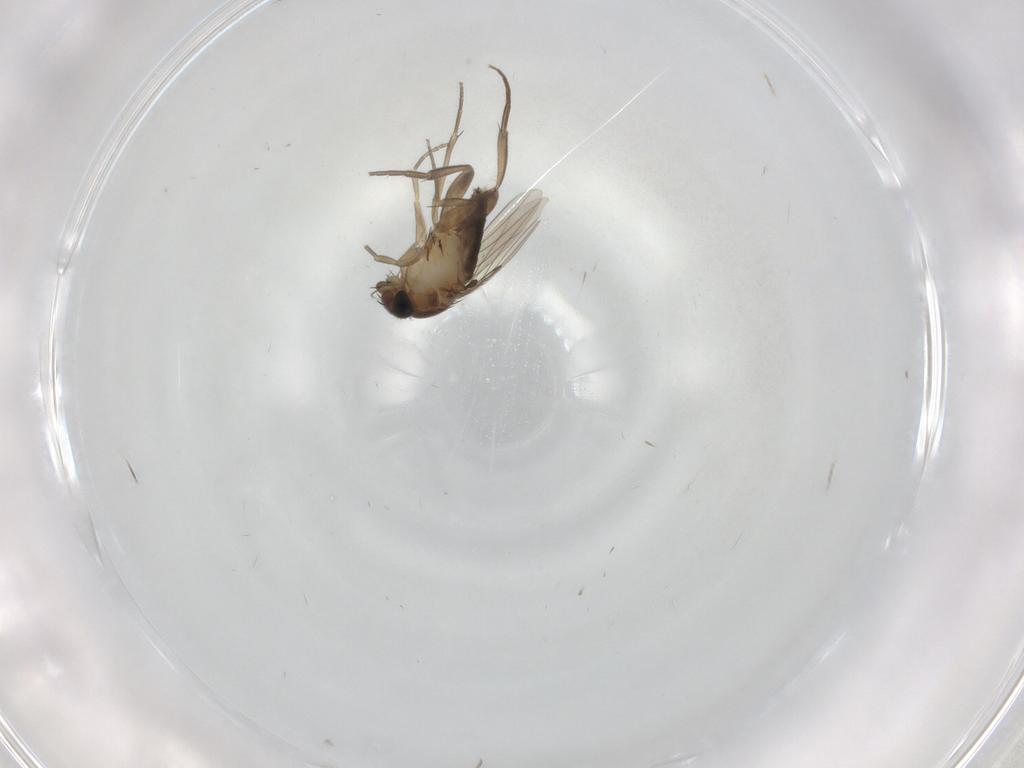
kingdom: Animalia
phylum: Arthropoda
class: Insecta
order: Diptera
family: Phoridae
